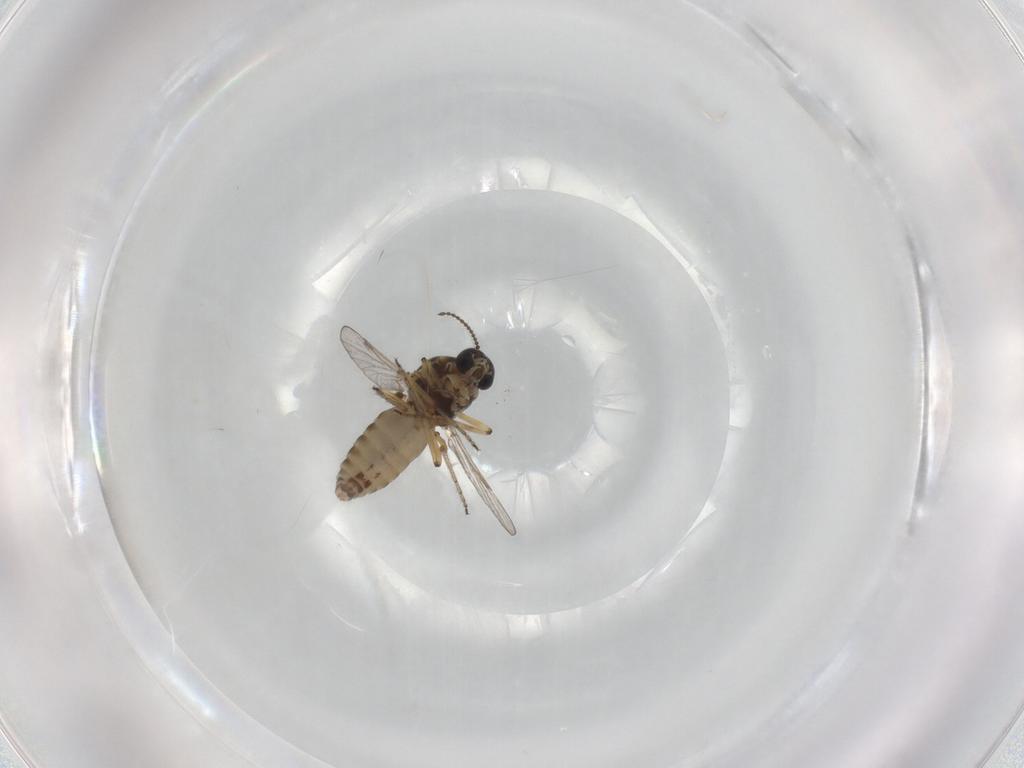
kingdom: Animalia
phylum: Arthropoda
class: Insecta
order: Diptera
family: Ceratopogonidae
